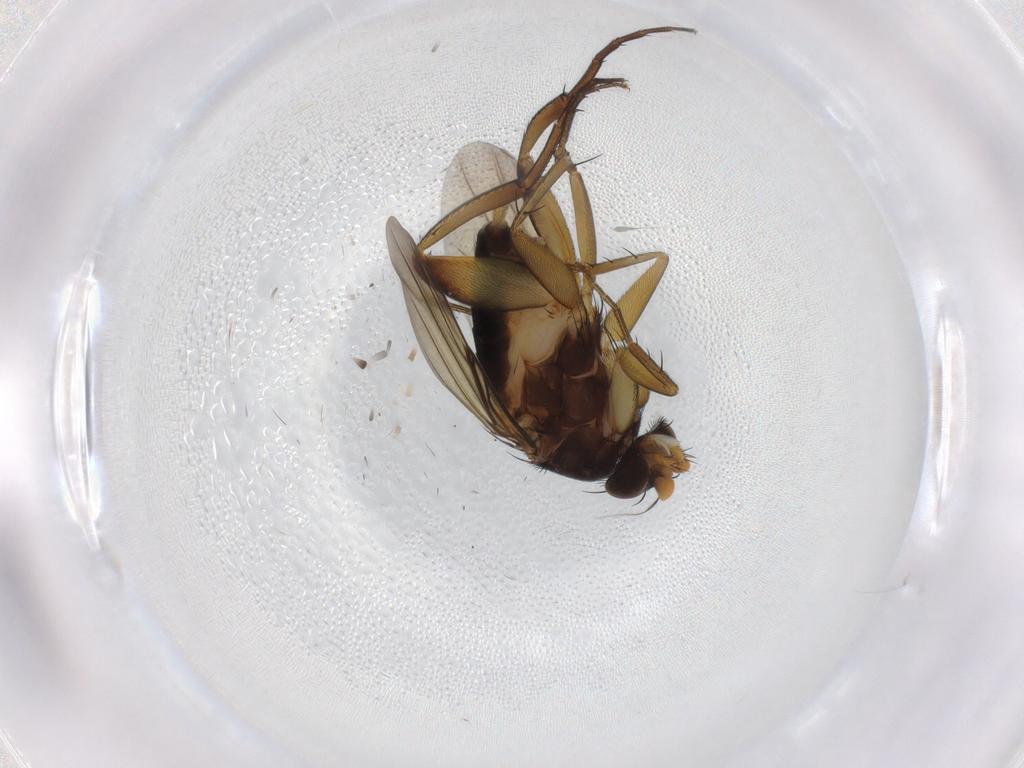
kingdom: Animalia
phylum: Arthropoda
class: Insecta
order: Diptera
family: Phoridae
